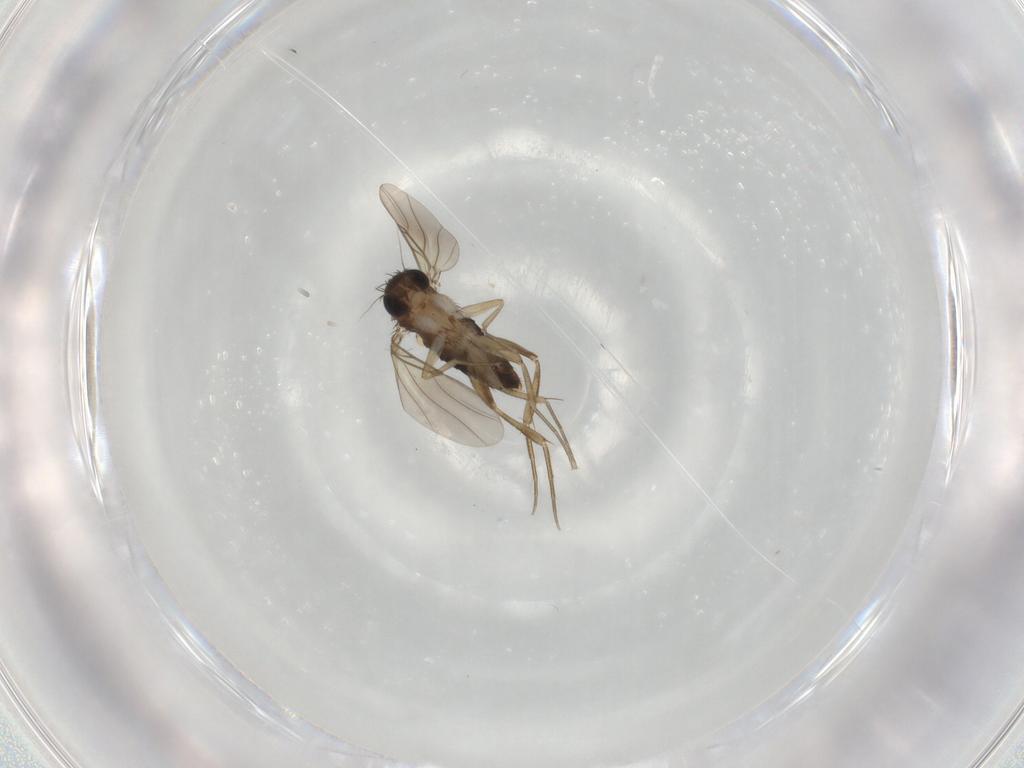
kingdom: Animalia
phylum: Arthropoda
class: Insecta
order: Diptera
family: Phoridae
